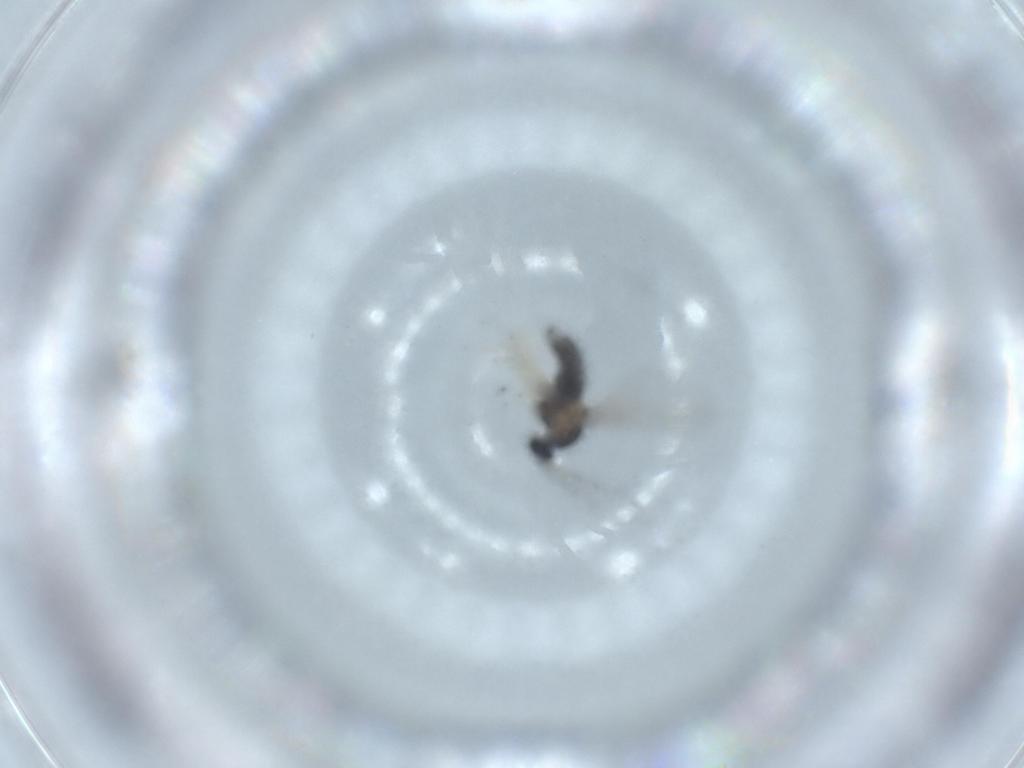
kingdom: Animalia
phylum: Arthropoda
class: Insecta
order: Diptera
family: Cecidomyiidae
